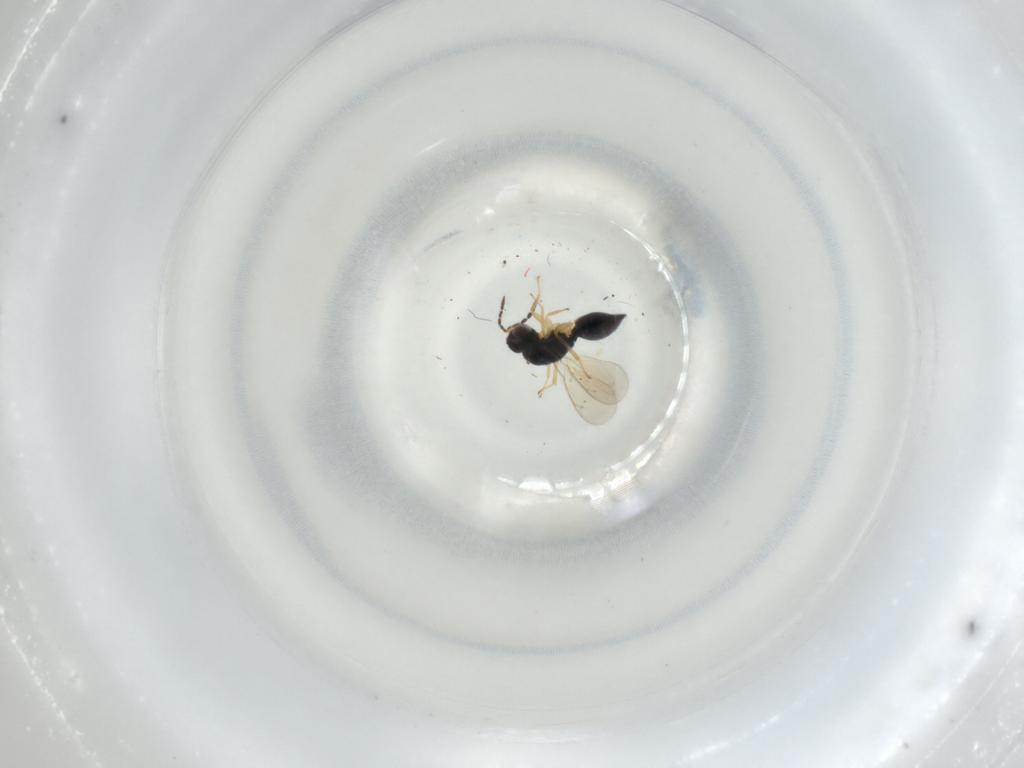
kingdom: Animalia
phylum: Arthropoda
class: Insecta
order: Hymenoptera
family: Eulophidae
